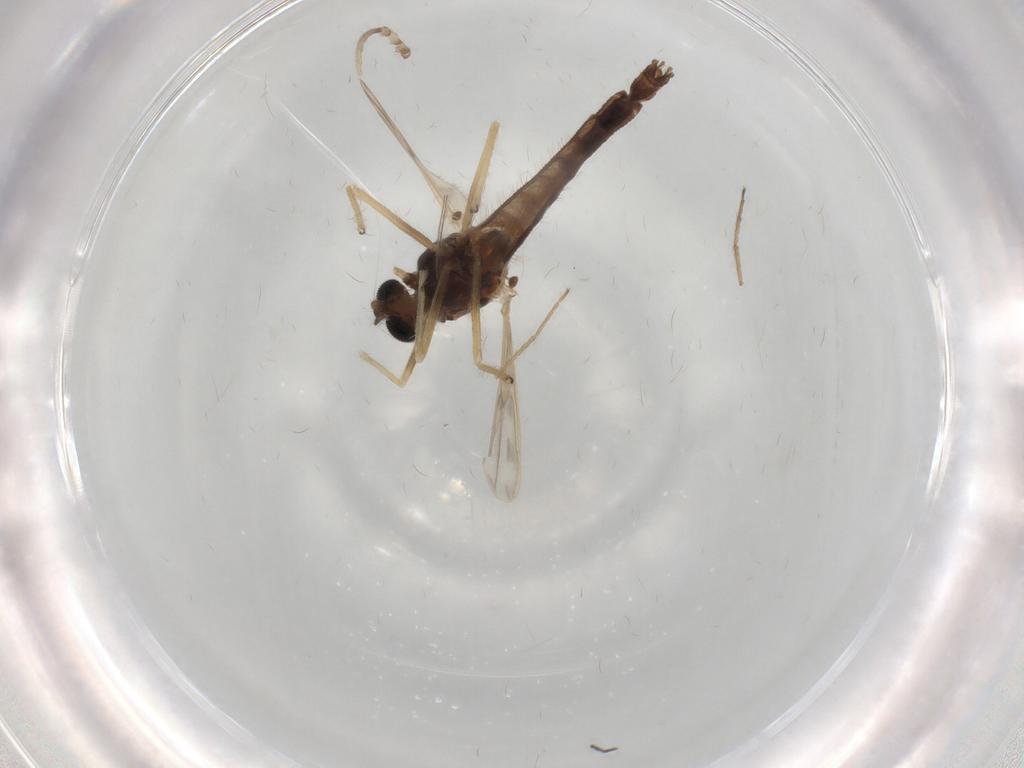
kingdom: Animalia
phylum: Arthropoda
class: Insecta
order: Diptera
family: Chironomidae
